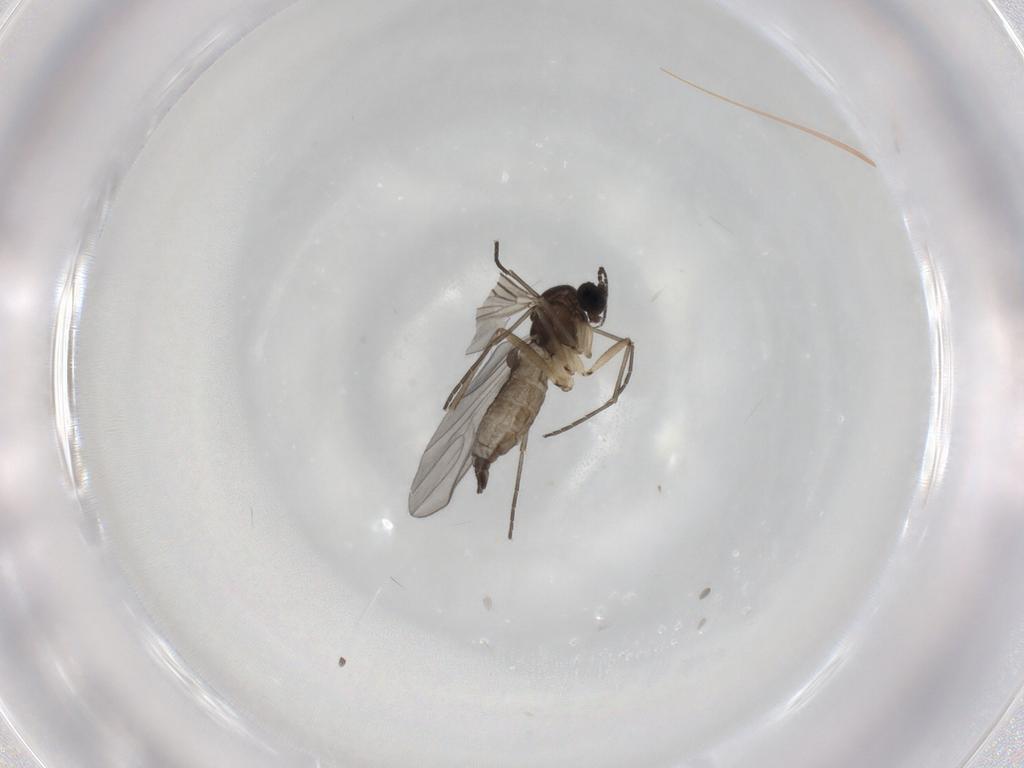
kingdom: Animalia
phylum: Arthropoda
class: Insecta
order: Diptera
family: Sciaridae
